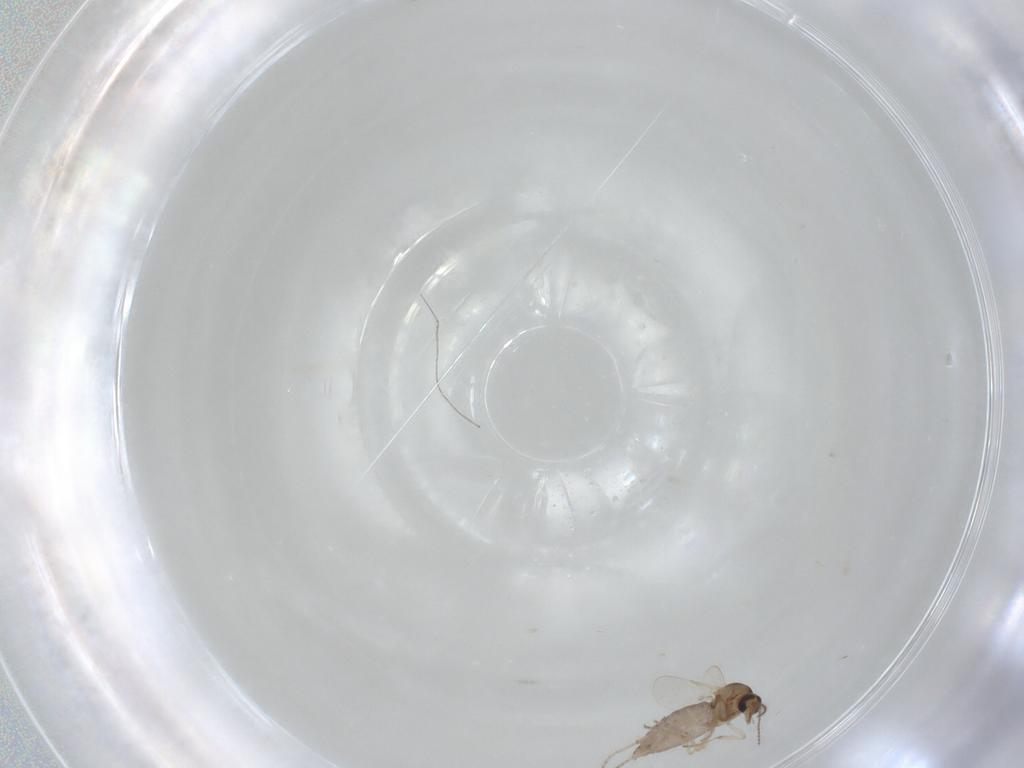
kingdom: Animalia
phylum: Arthropoda
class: Insecta
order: Diptera
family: Ceratopogonidae
